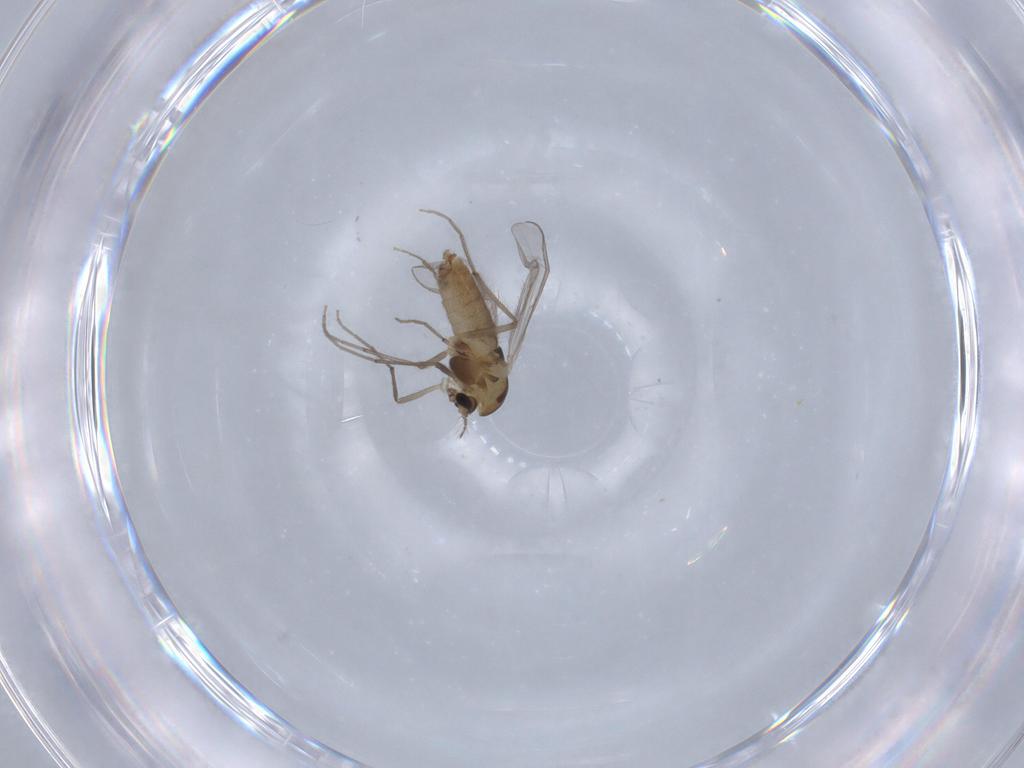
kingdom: Animalia
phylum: Arthropoda
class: Insecta
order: Diptera
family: Chironomidae
